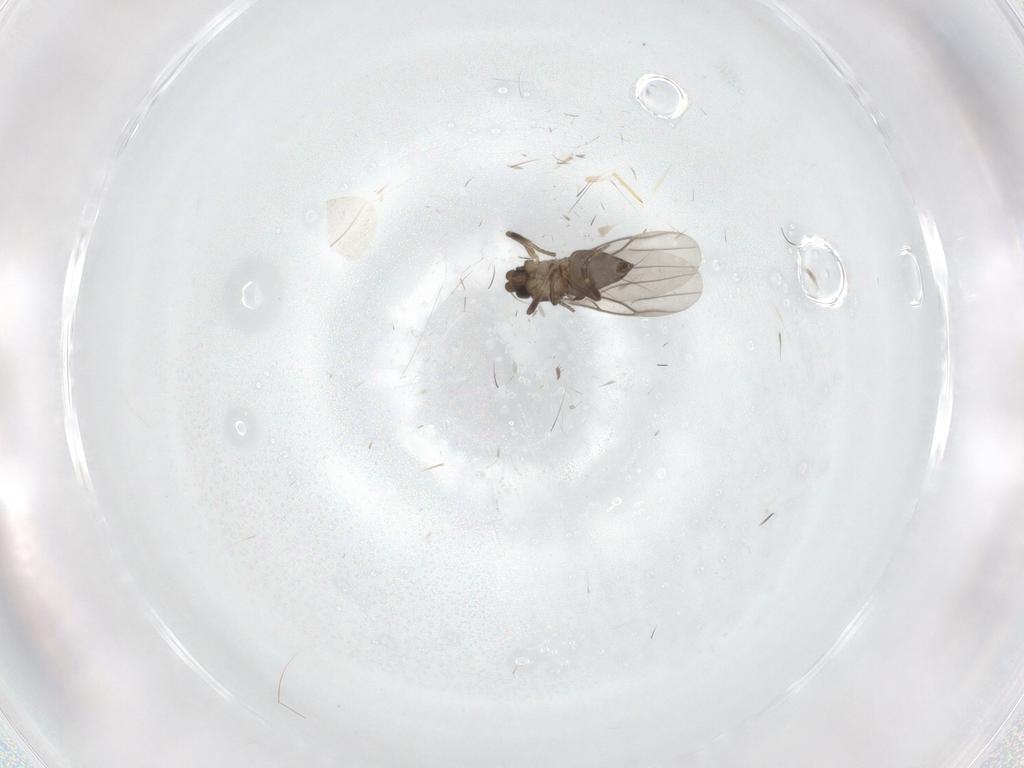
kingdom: Animalia
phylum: Arthropoda
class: Insecta
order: Diptera
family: Phoridae
